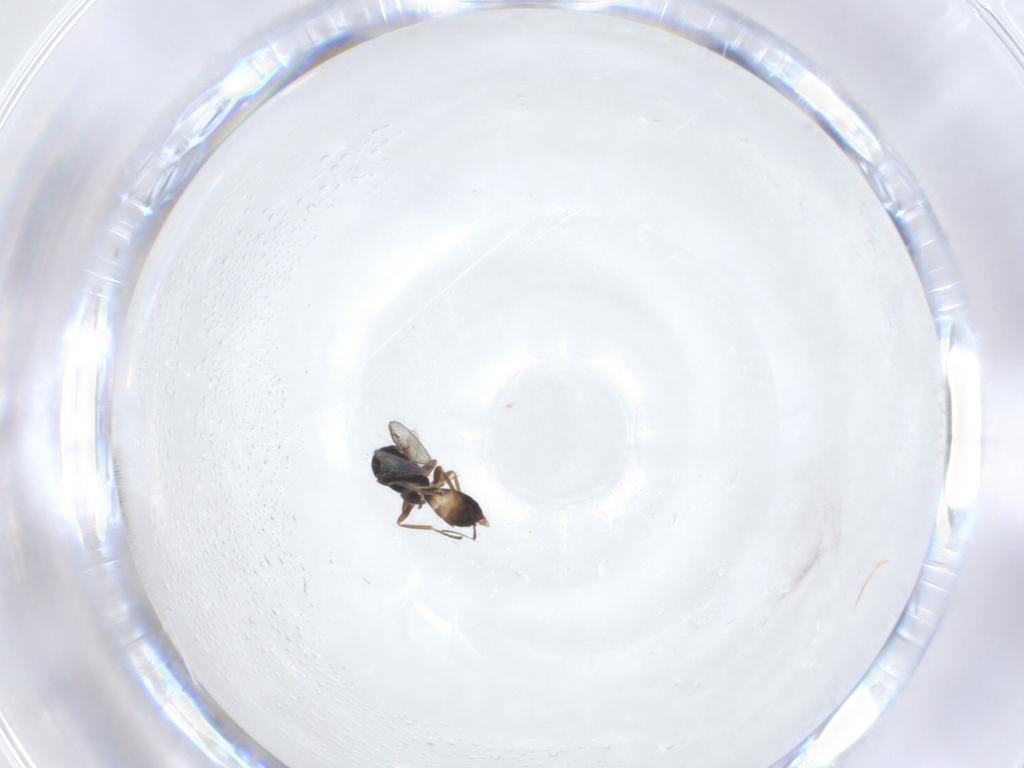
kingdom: Animalia
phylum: Arthropoda
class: Insecta
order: Hymenoptera
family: Pteromalidae
